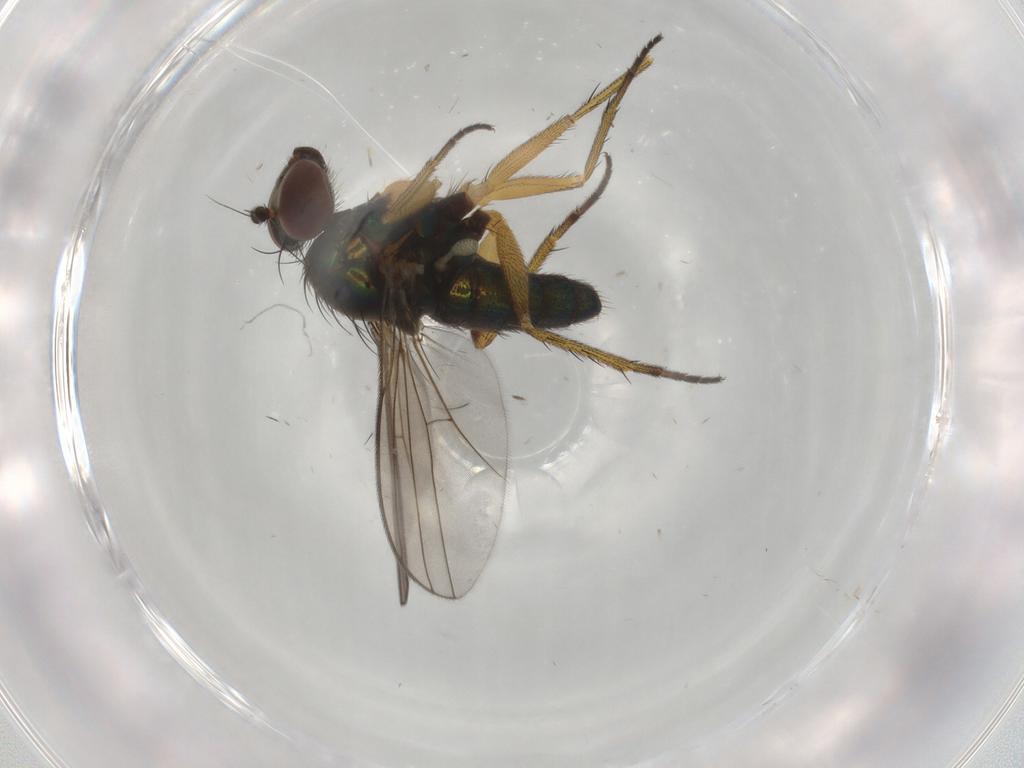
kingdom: Animalia
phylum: Arthropoda
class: Insecta
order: Diptera
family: Dolichopodidae
